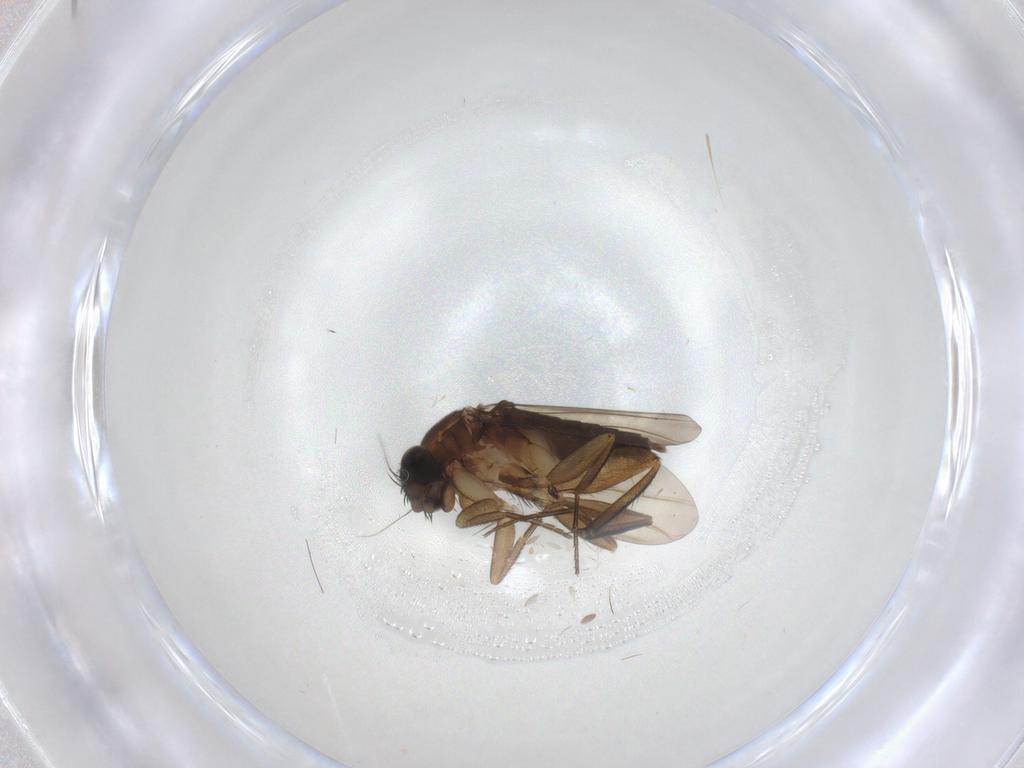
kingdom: Animalia
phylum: Arthropoda
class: Insecta
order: Diptera
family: Phoridae
